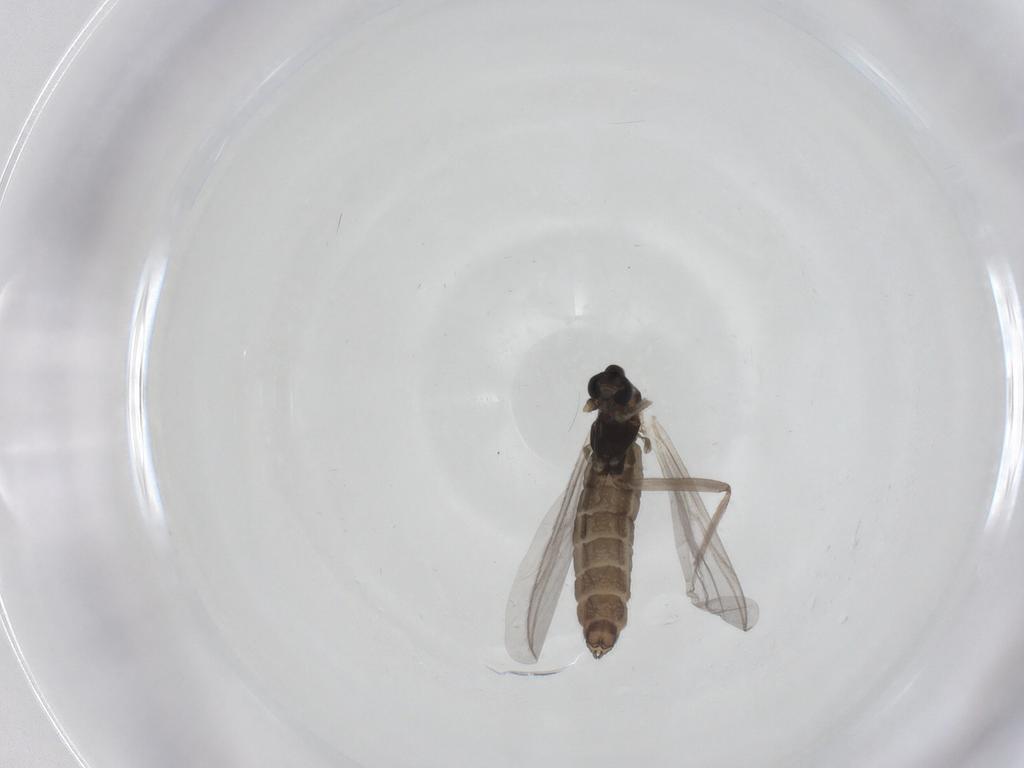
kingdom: Animalia
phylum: Arthropoda
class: Insecta
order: Diptera
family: Chironomidae
